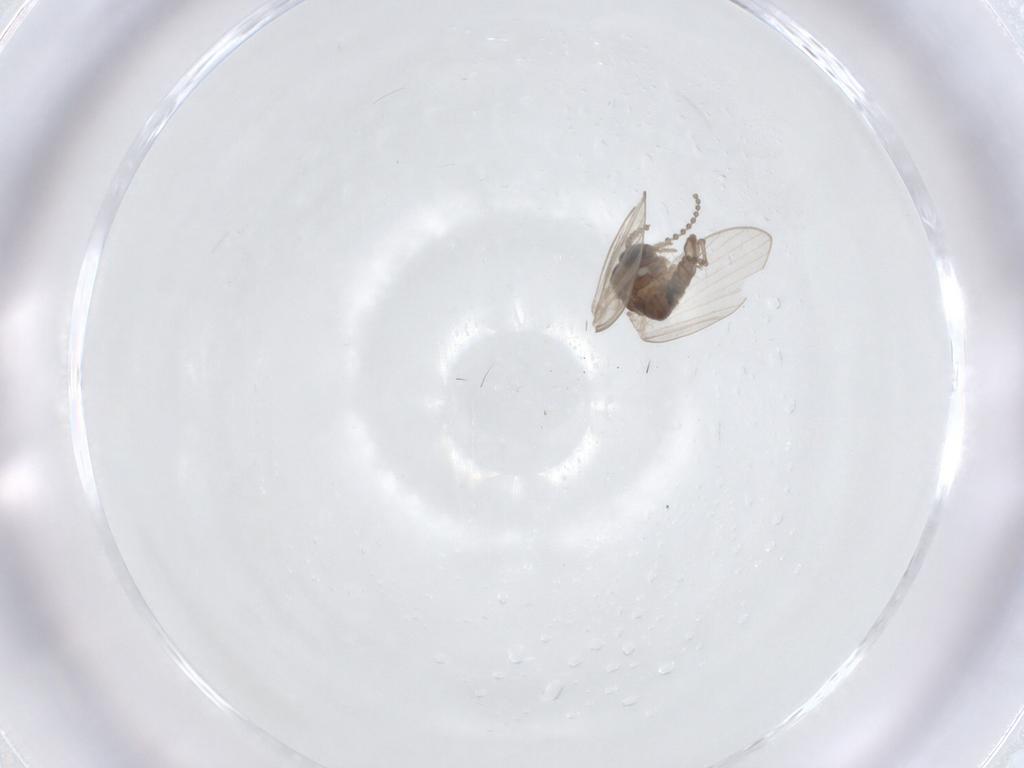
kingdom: Animalia
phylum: Arthropoda
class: Insecta
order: Diptera
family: Psychodidae
